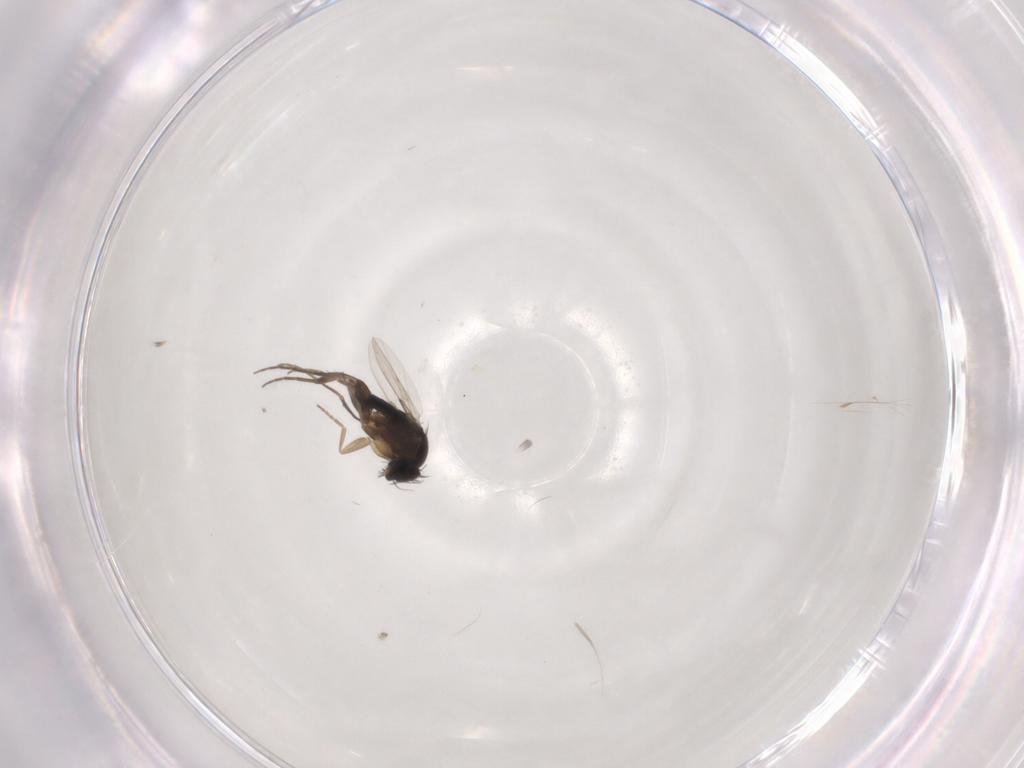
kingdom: Animalia
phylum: Arthropoda
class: Insecta
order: Diptera
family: Phoridae
